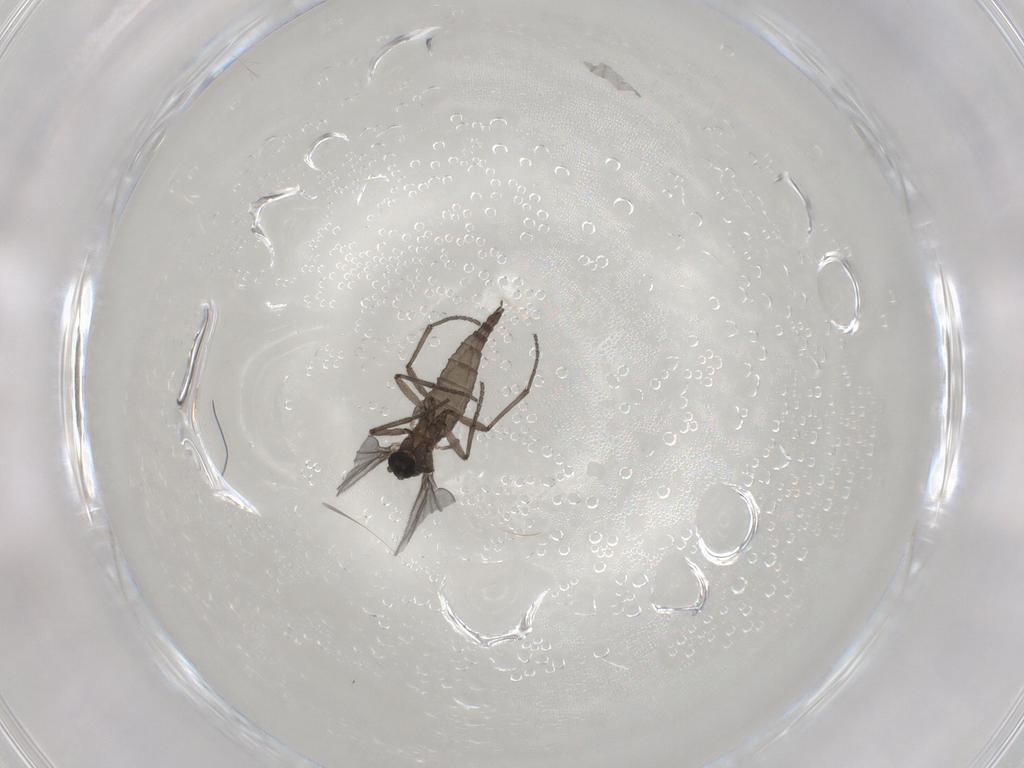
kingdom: Animalia
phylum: Arthropoda
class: Insecta
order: Diptera
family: Sciaridae
